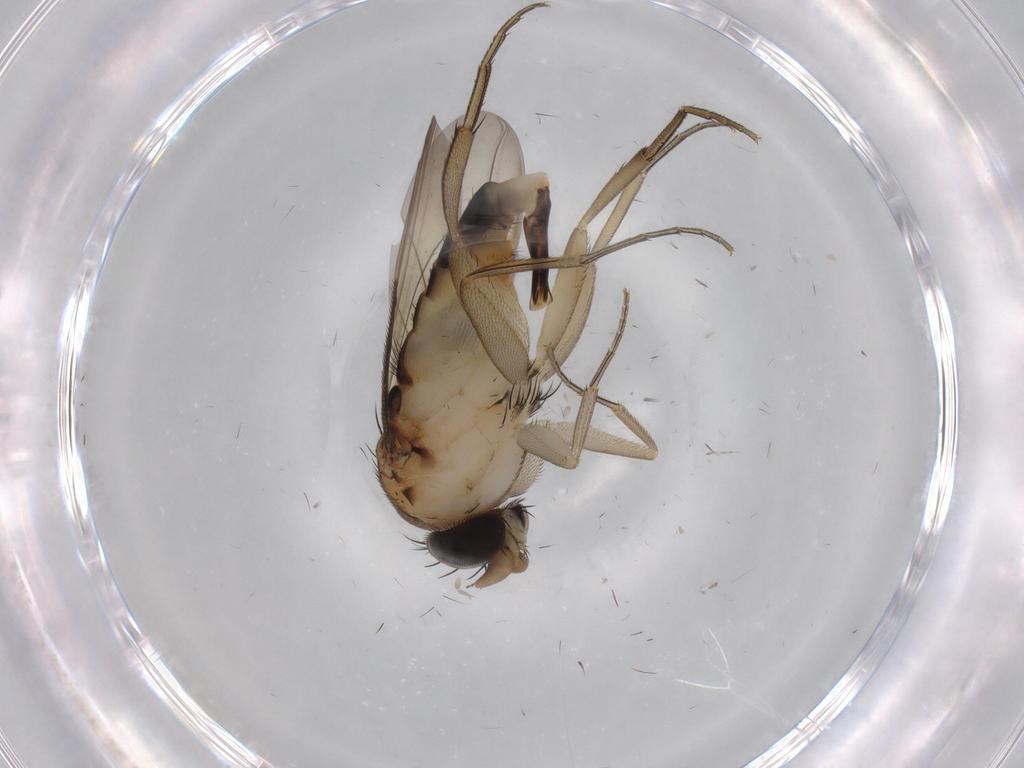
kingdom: Animalia
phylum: Arthropoda
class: Insecta
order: Diptera
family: Phoridae
